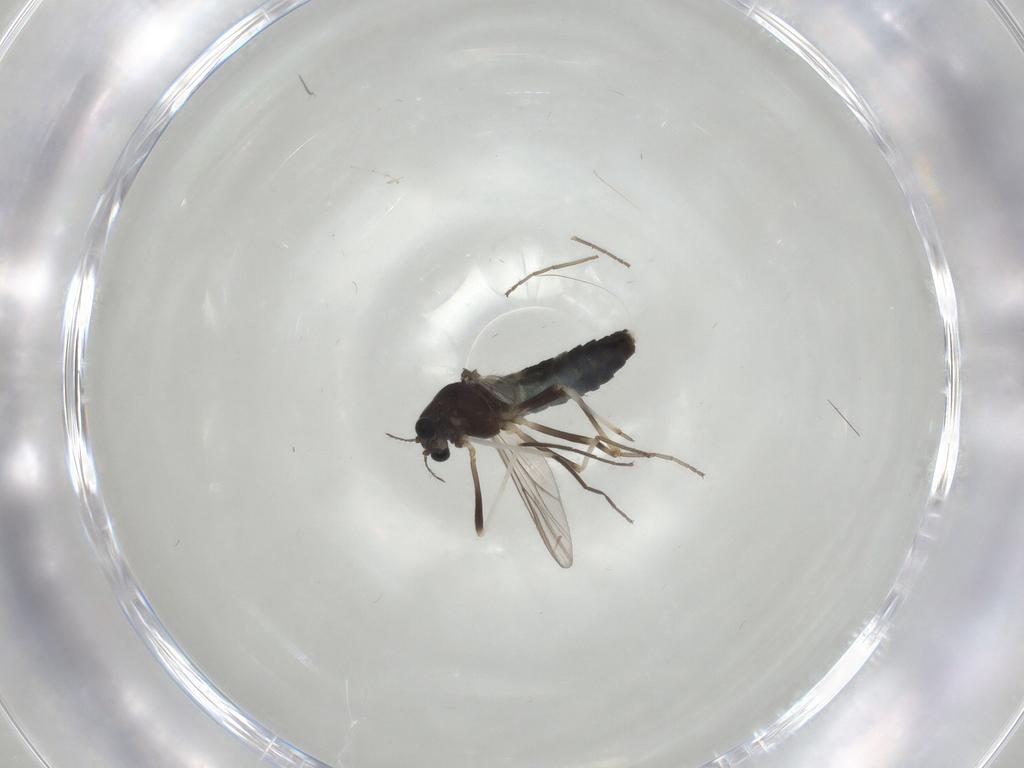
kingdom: Animalia
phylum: Arthropoda
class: Insecta
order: Diptera
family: Chironomidae
